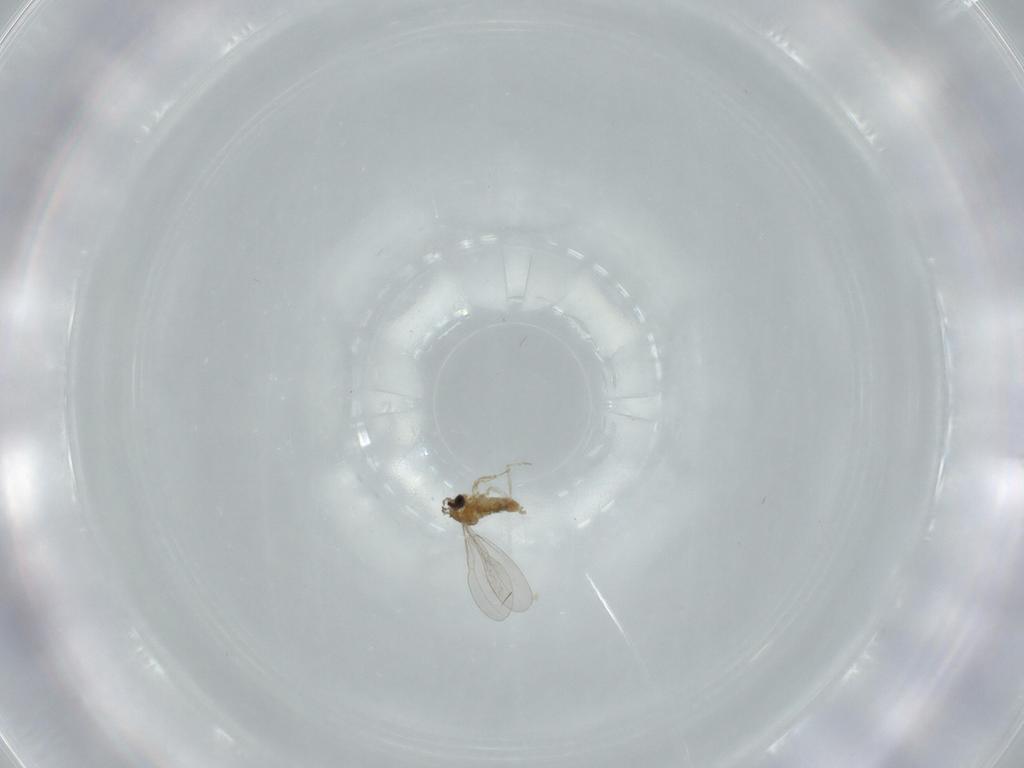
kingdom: Animalia
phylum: Arthropoda
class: Insecta
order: Diptera
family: Cecidomyiidae
